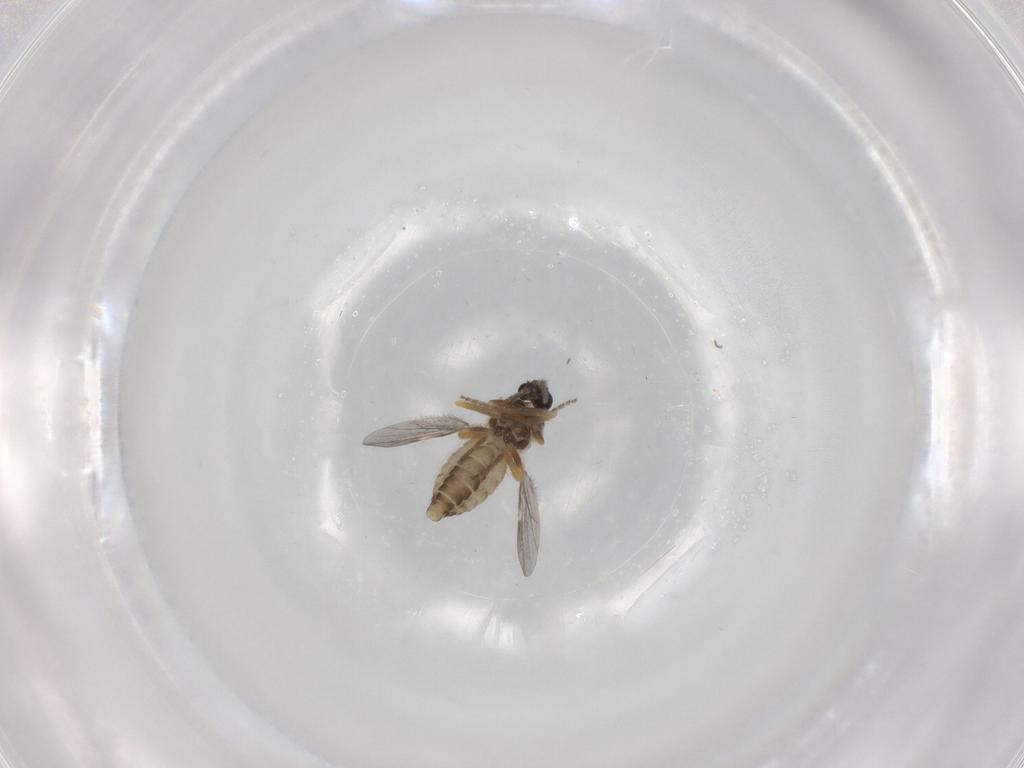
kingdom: Animalia
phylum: Arthropoda
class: Insecta
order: Diptera
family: Ceratopogonidae
